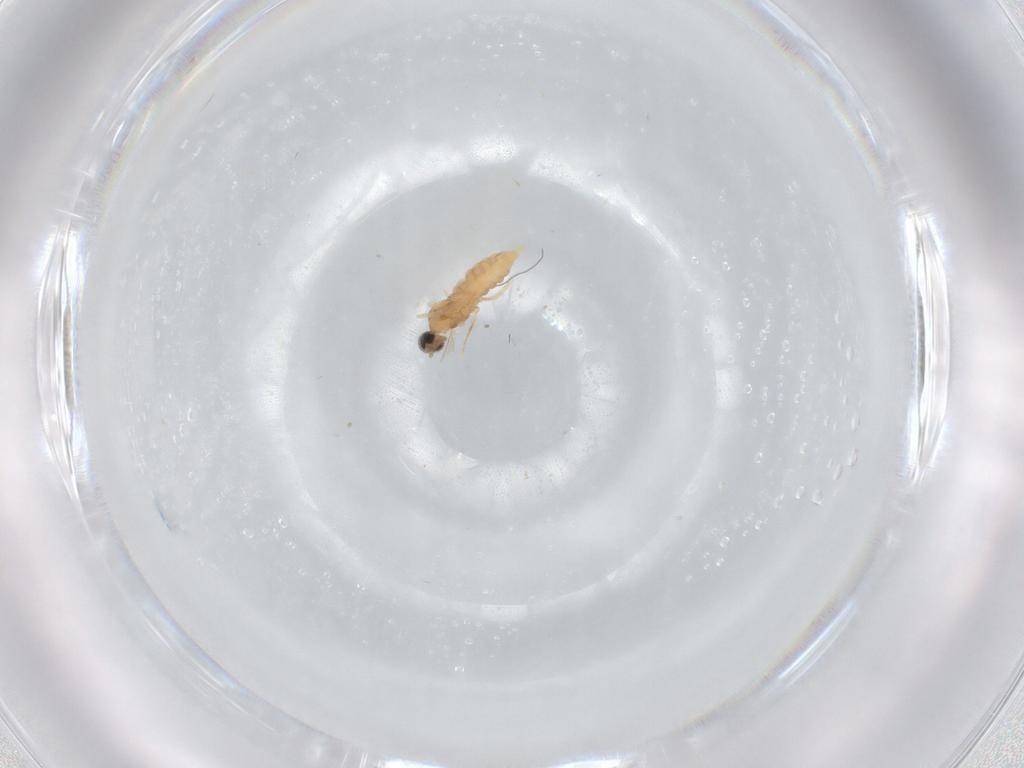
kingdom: Animalia
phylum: Arthropoda
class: Insecta
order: Diptera
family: Cecidomyiidae
